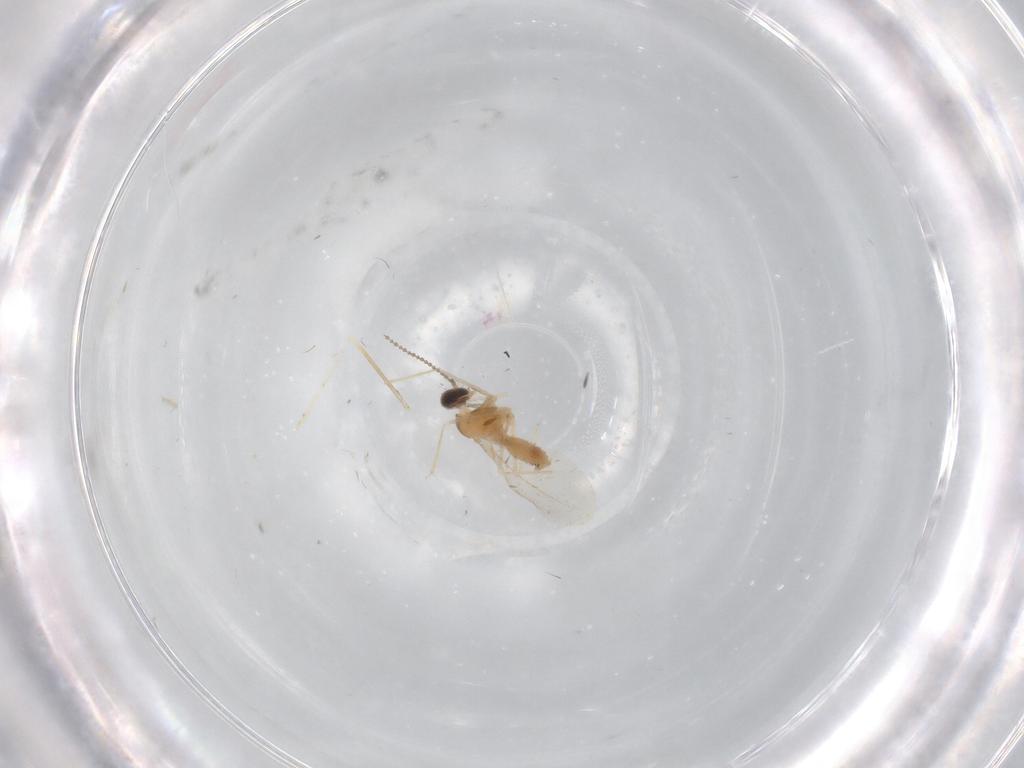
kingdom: Animalia
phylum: Arthropoda
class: Insecta
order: Diptera
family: Cecidomyiidae
